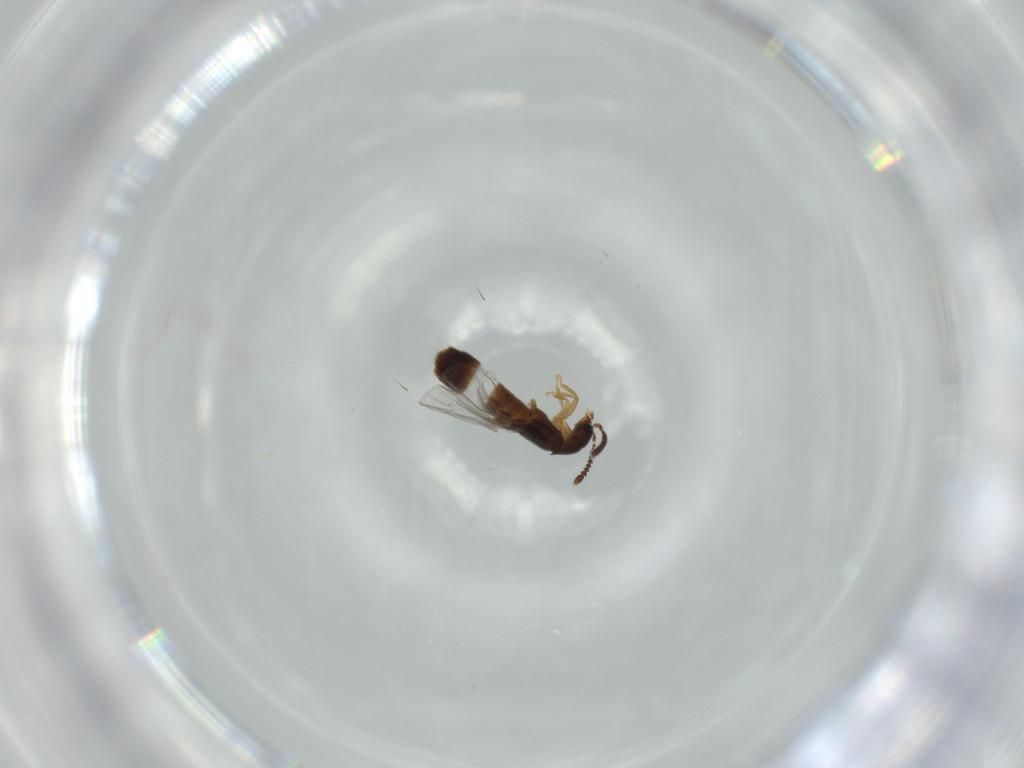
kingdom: Animalia
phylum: Arthropoda
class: Insecta
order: Coleoptera
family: Staphylinidae
